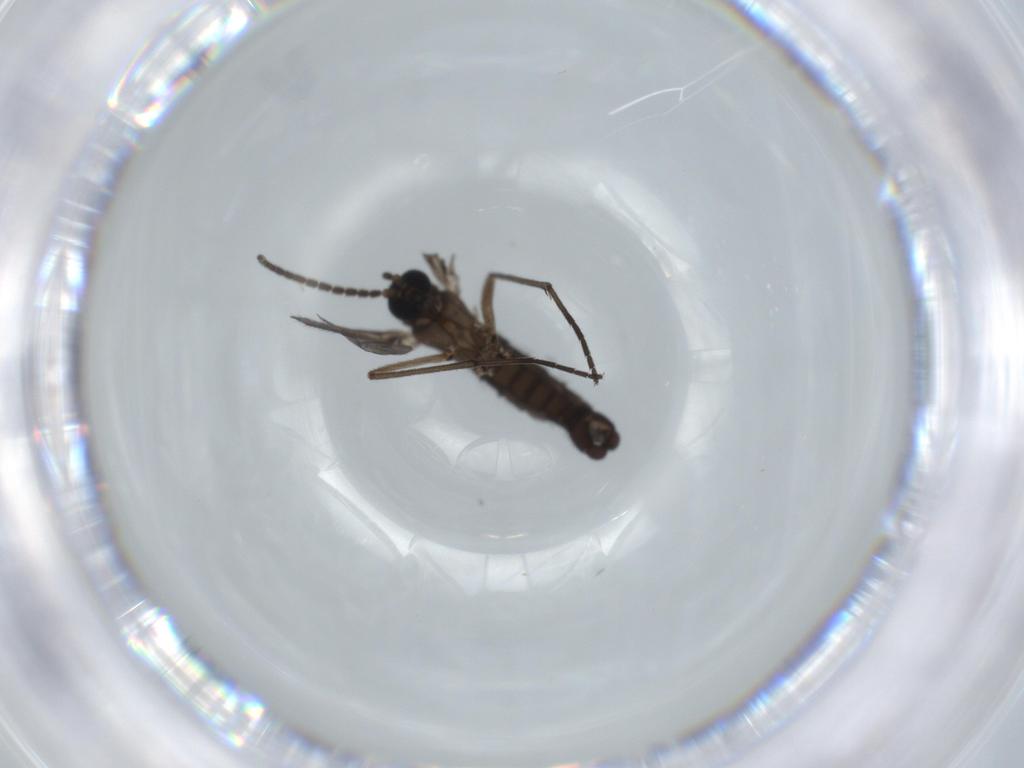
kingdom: Animalia
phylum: Arthropoda
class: Insecta
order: Diptera
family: Sciaridae
